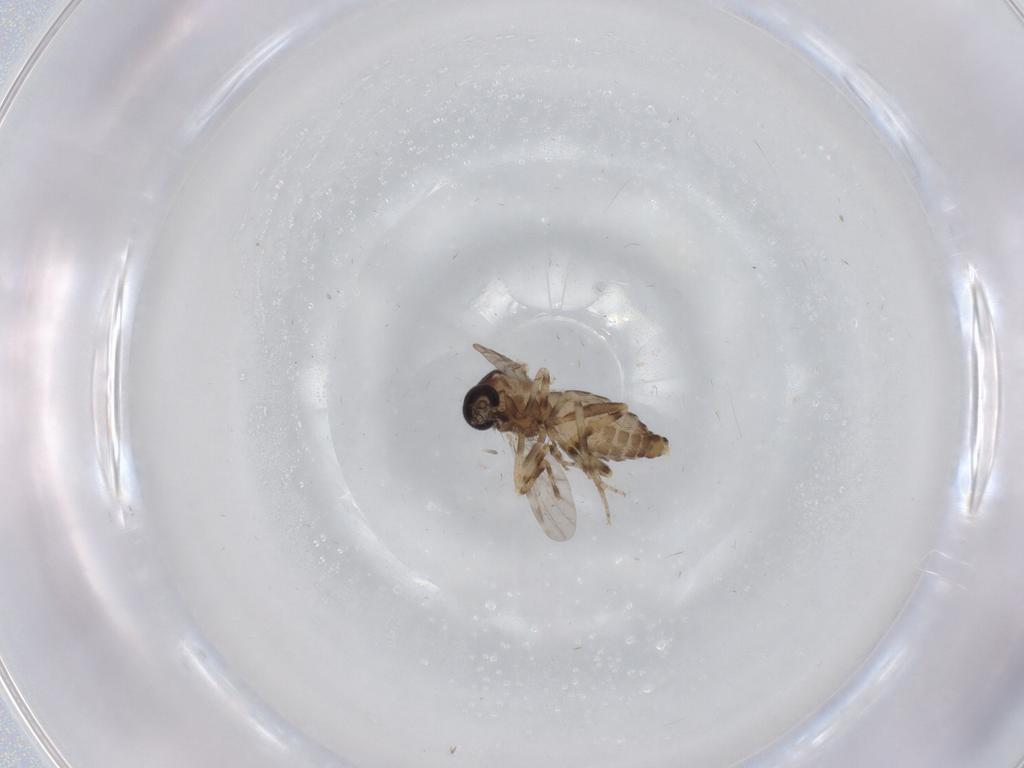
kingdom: Animalia
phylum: Arthropoda
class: Insecta
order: Diptera
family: Ceratopogonidae
